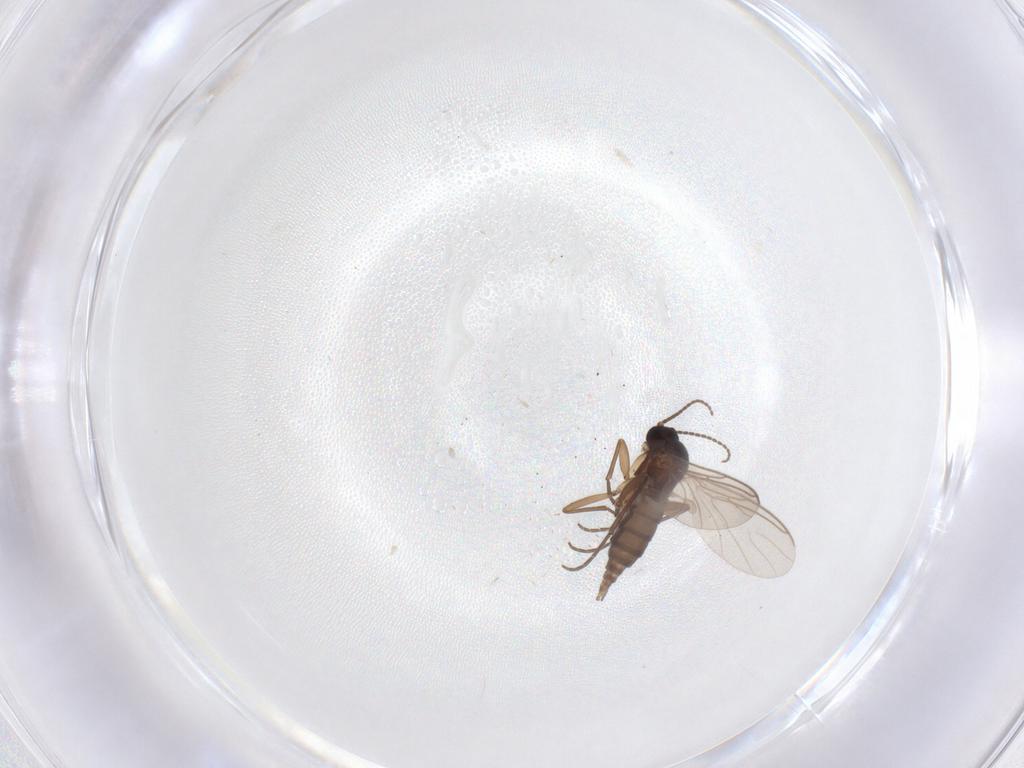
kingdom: Animalia
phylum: Arthropoda
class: Insecta
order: Diptera
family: Sciaridae
